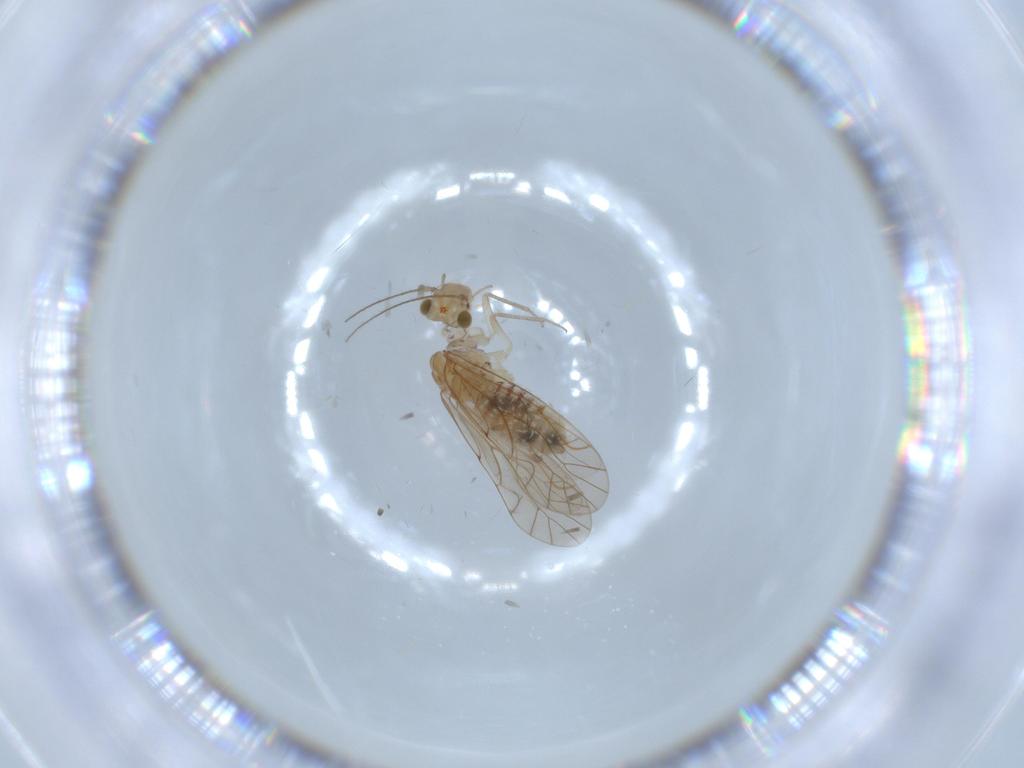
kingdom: Animalia
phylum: Arthropoda
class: Insecta
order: Psocodea
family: Lachesillidae
